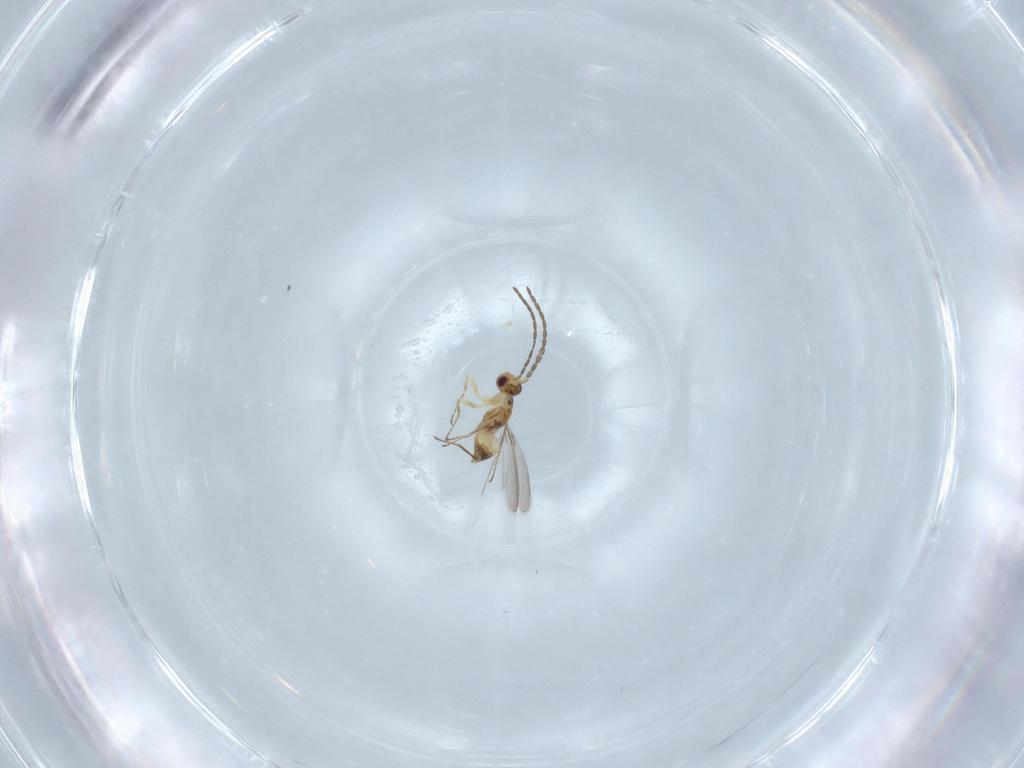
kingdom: Animalia
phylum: Arthropoda
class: Insecta
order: Hymenoptera
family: Mymaridae
